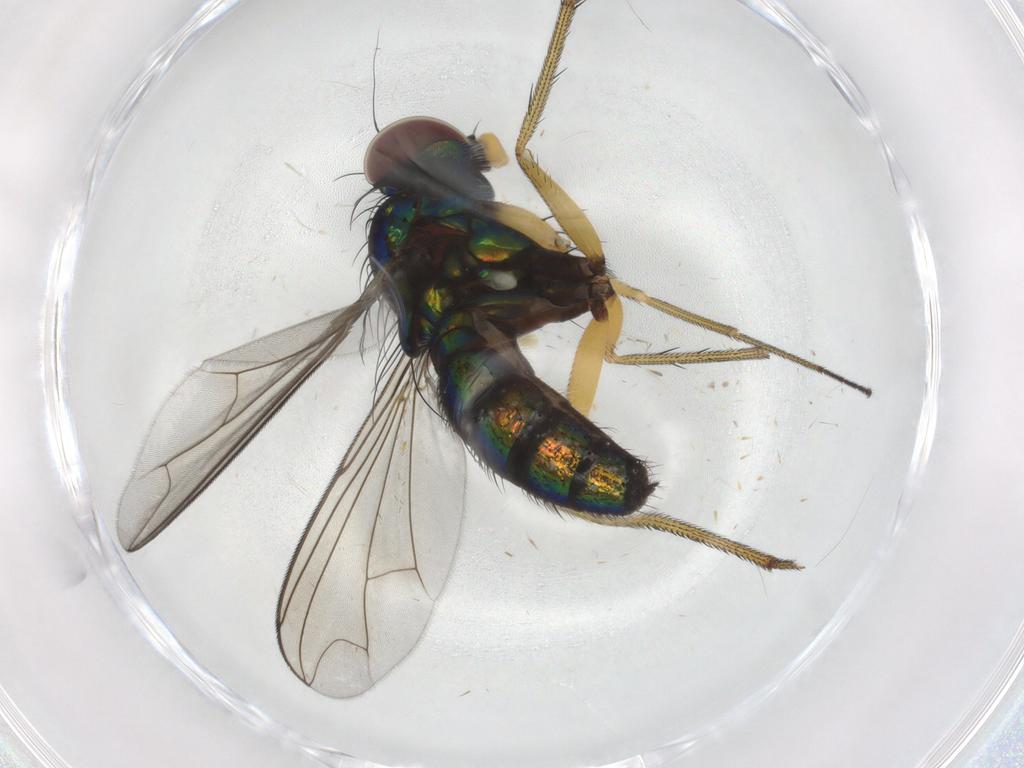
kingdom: Animalia
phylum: Arthropoda
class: Insecta
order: Diptera
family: Dolichopodidae
